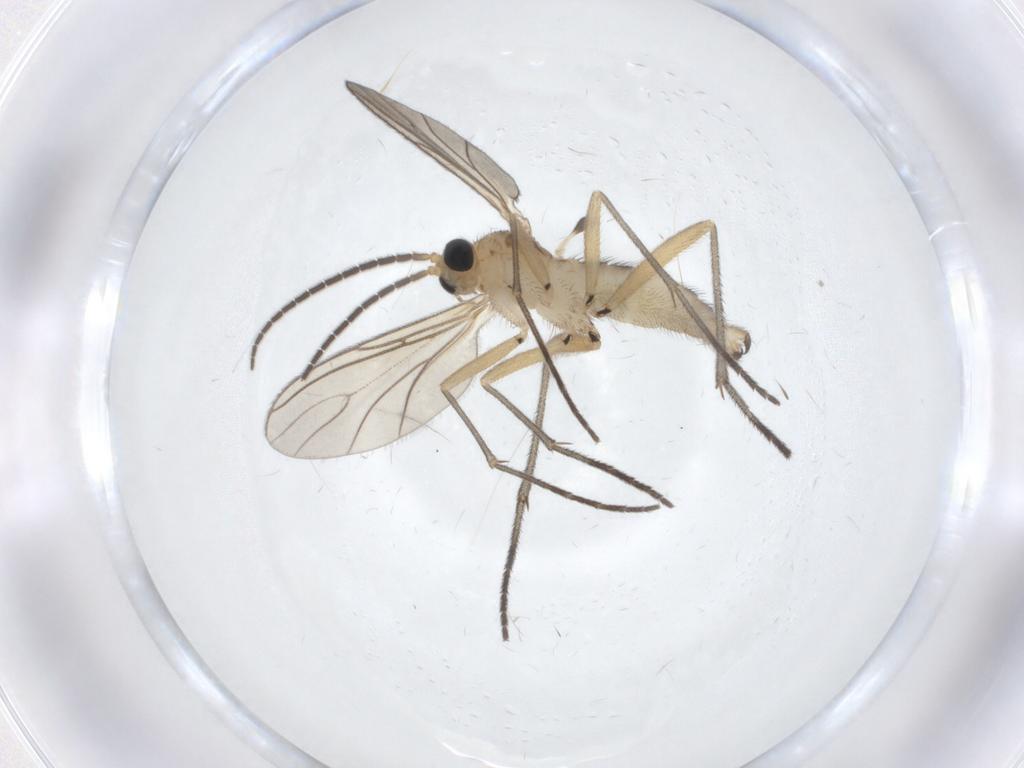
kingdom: Animalia
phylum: Arthropoda
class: Insecta
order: Diptera
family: Sciaridae
